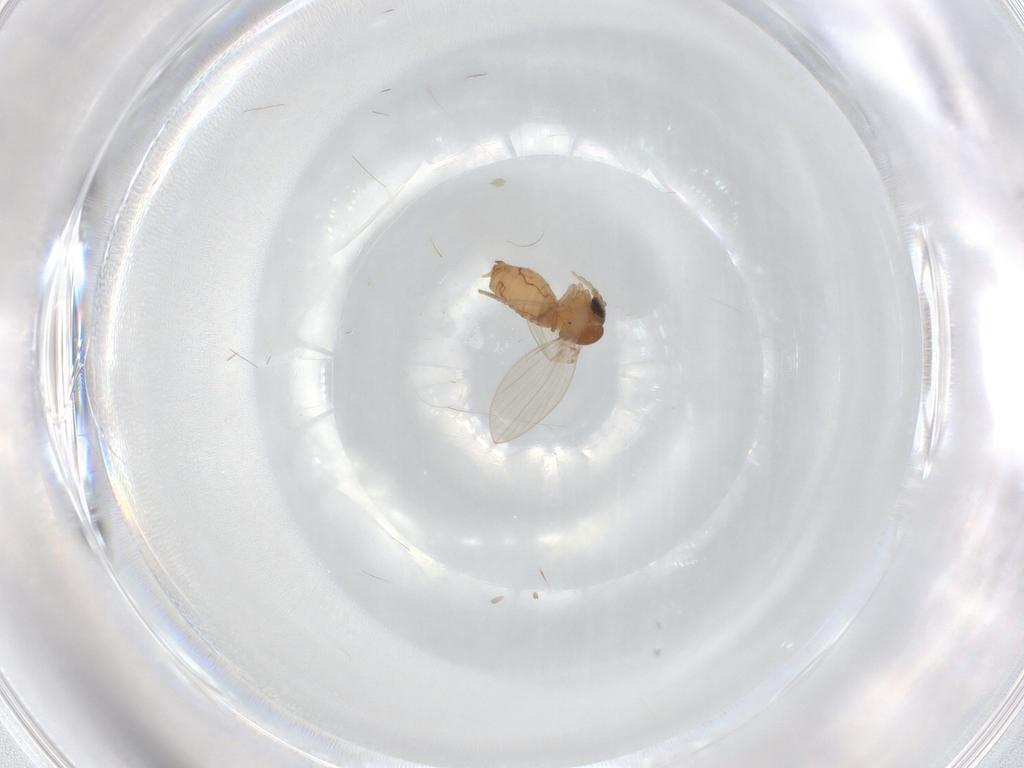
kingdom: Animalia
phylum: Arthropoda
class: Insecta
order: Diptera
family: Psychodidae
